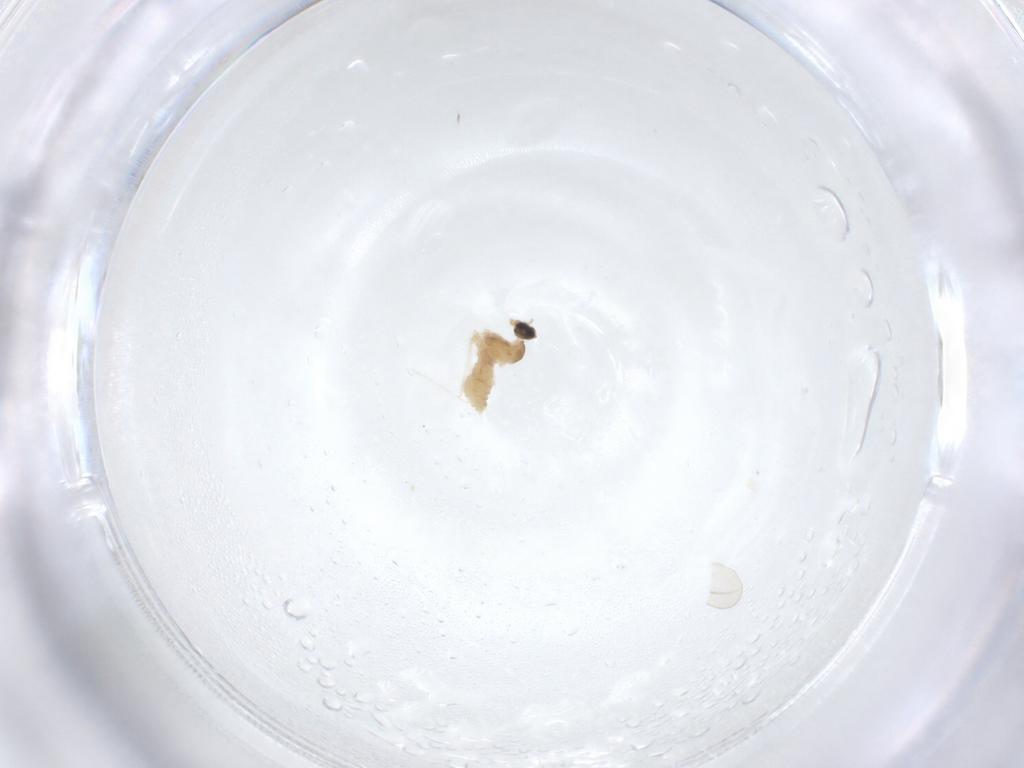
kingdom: Animalia
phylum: Arthropoda
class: Insecta
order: Diptera
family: Cecidomyiidae
